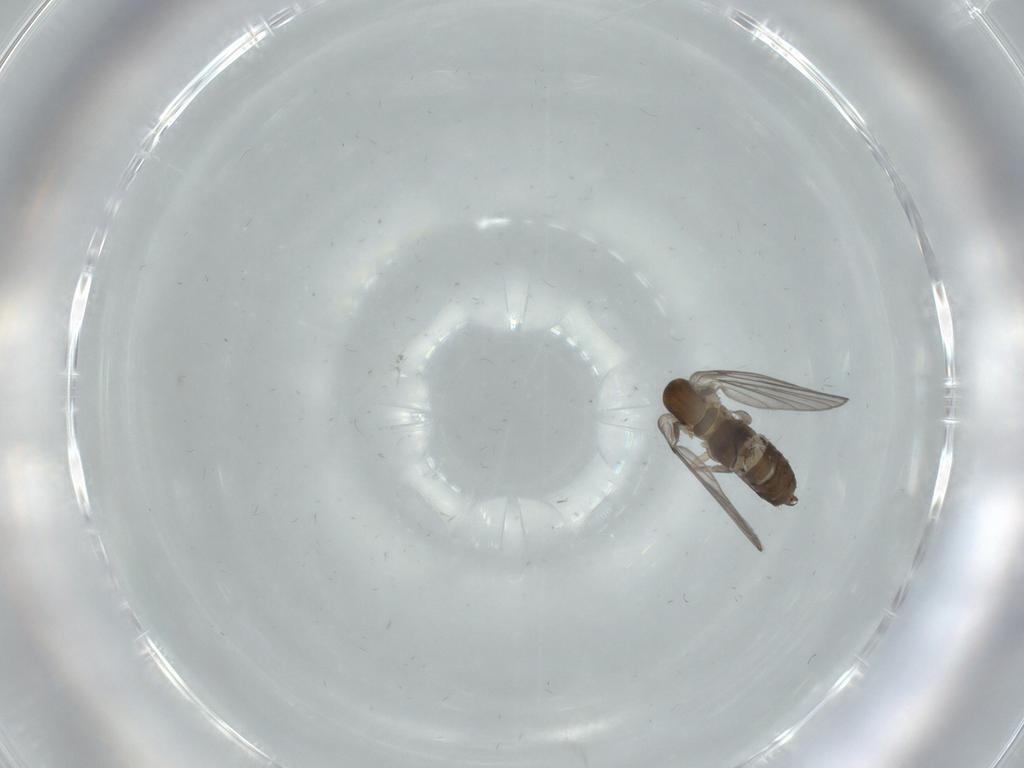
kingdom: Animalia
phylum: Arthropoda
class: Insecta
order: Diptera
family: Psychodidae
